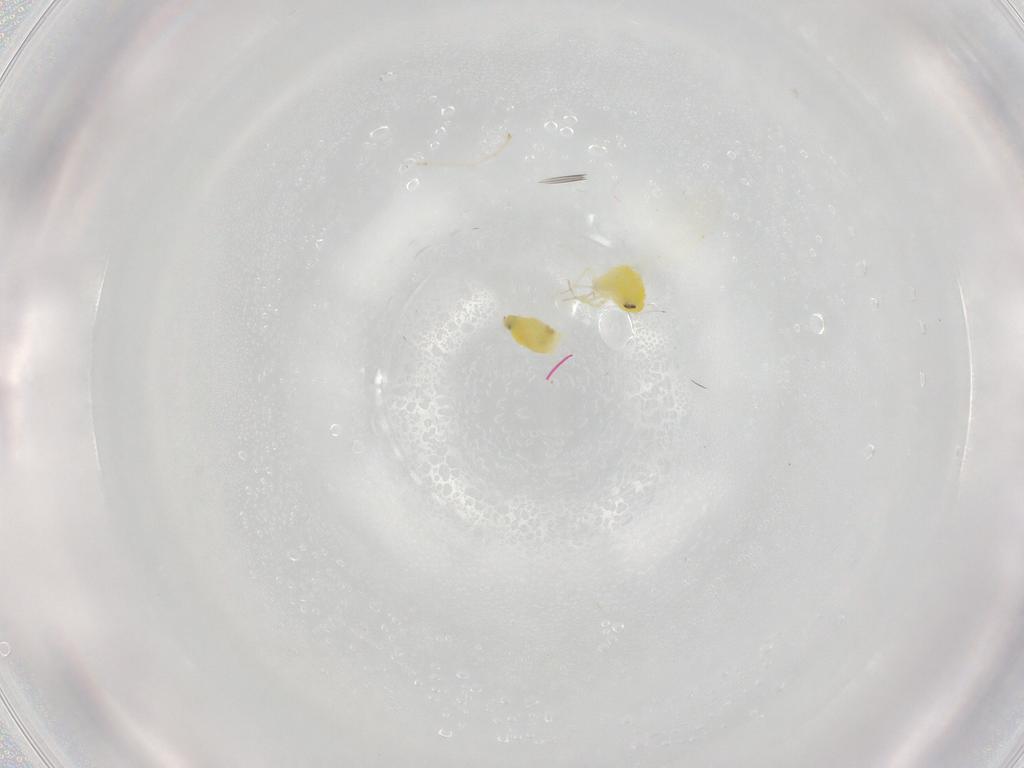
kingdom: Animalia
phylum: Arthropoda
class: Insecta
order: Hemiptera
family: Aleyrodidae
